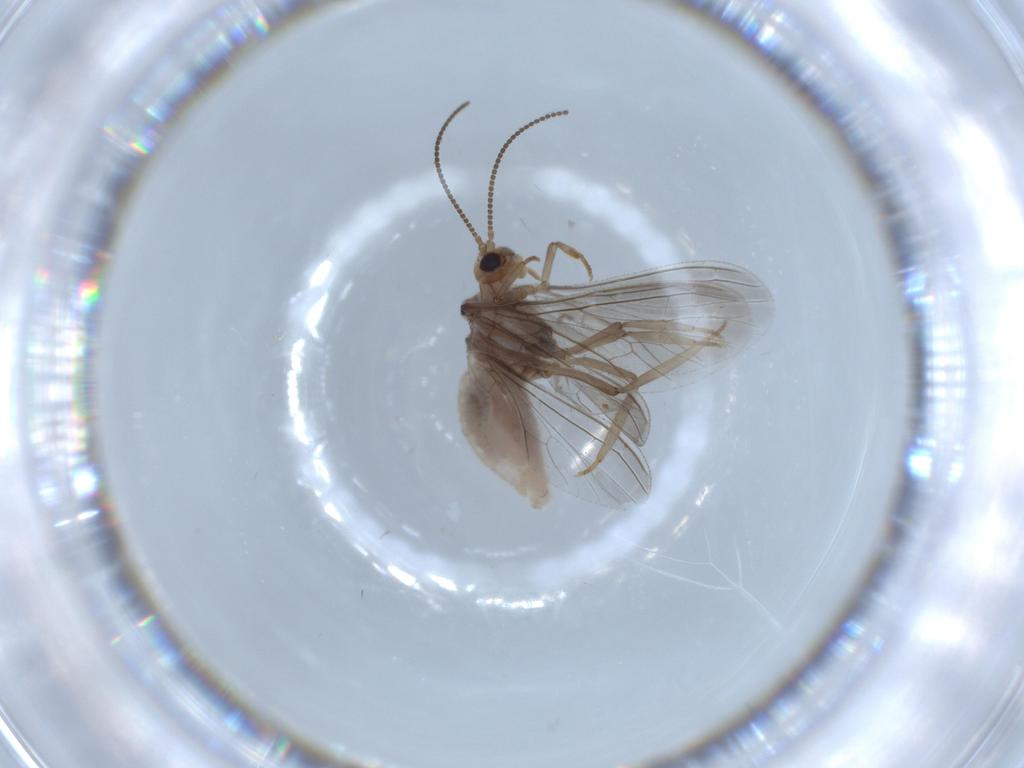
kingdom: Animalia
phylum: Arthropoda
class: Insecta
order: Neuroptera
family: Coniopterygidae
